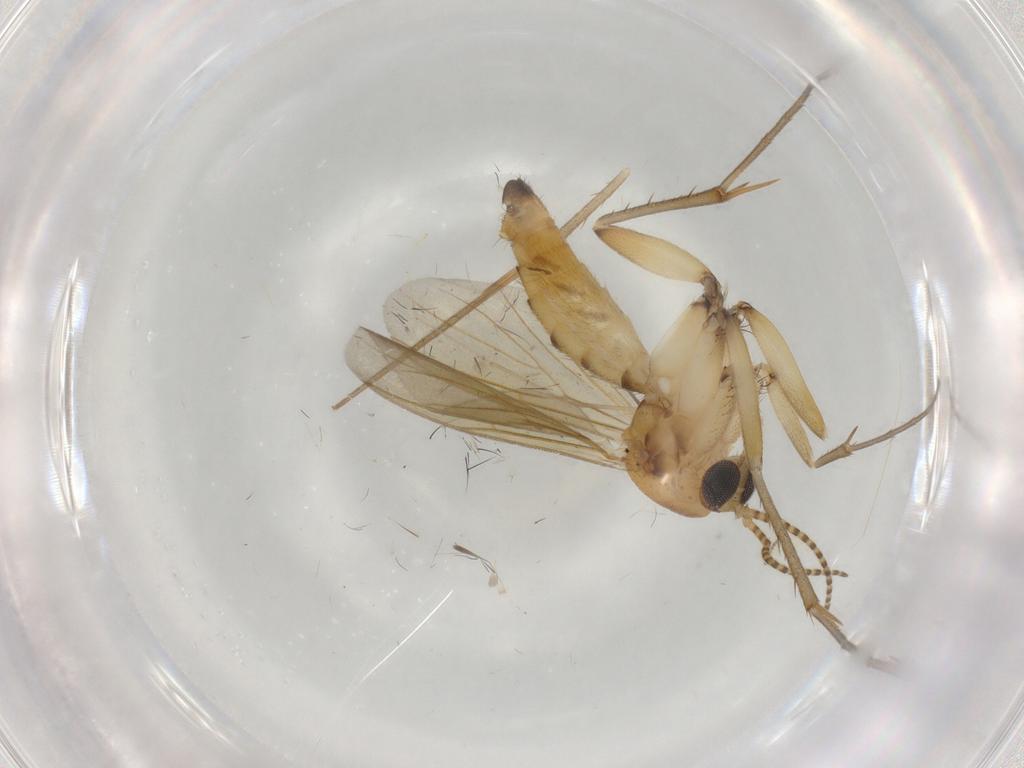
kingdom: Animalia
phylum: Arthropoda
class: Insecta
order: Diptera
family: Mycetophilidae
